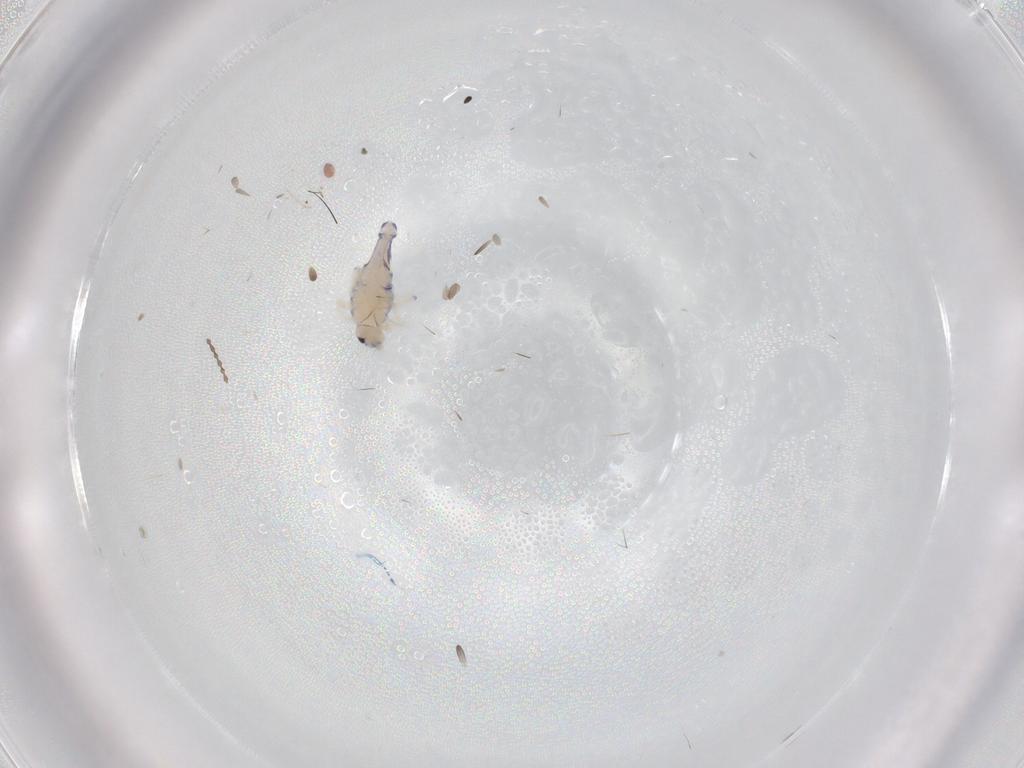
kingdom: Animalia
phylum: Arthropoda
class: Collembola
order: Entomobryomorpha
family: Entomobryidae
